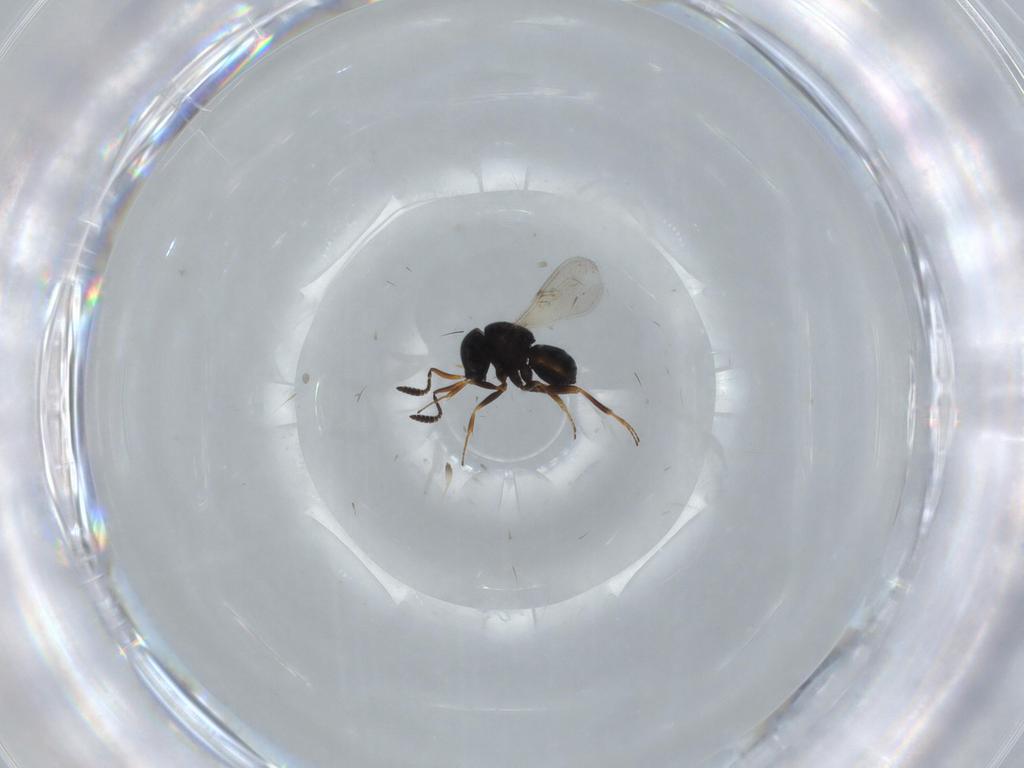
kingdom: Animalia
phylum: Arthropoda
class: Insecta
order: Hymenoptera
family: Scelionidae
